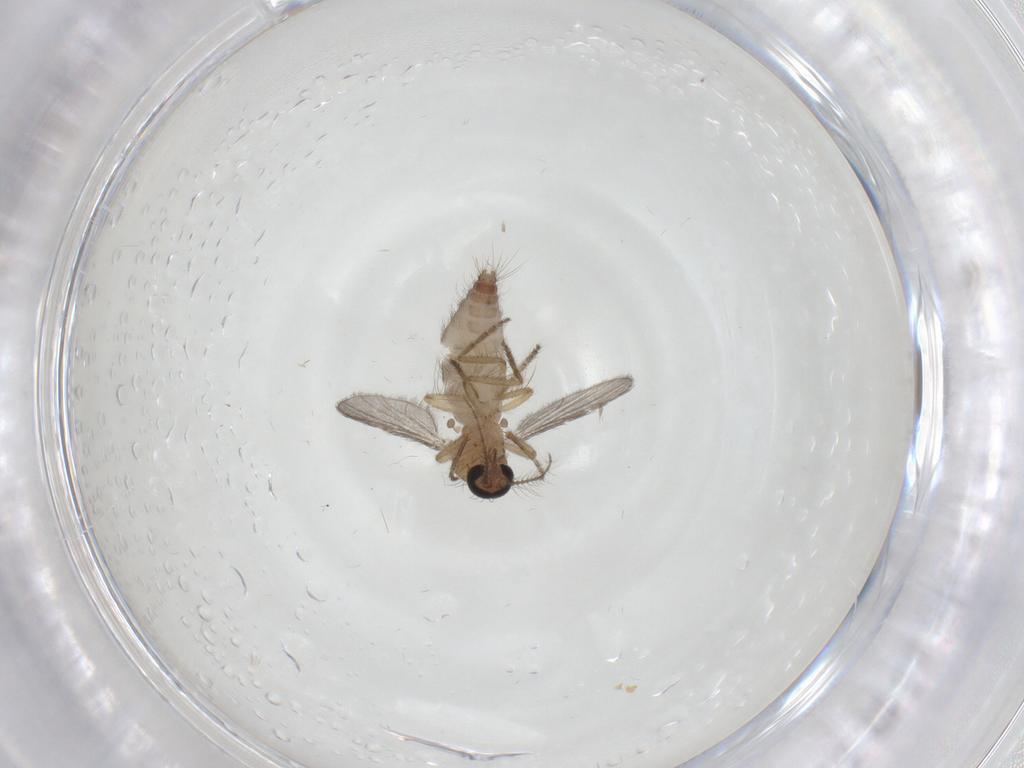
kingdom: Animalia
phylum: Arthropoda
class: Insecta
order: Diptera
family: Ceratopogonidae
